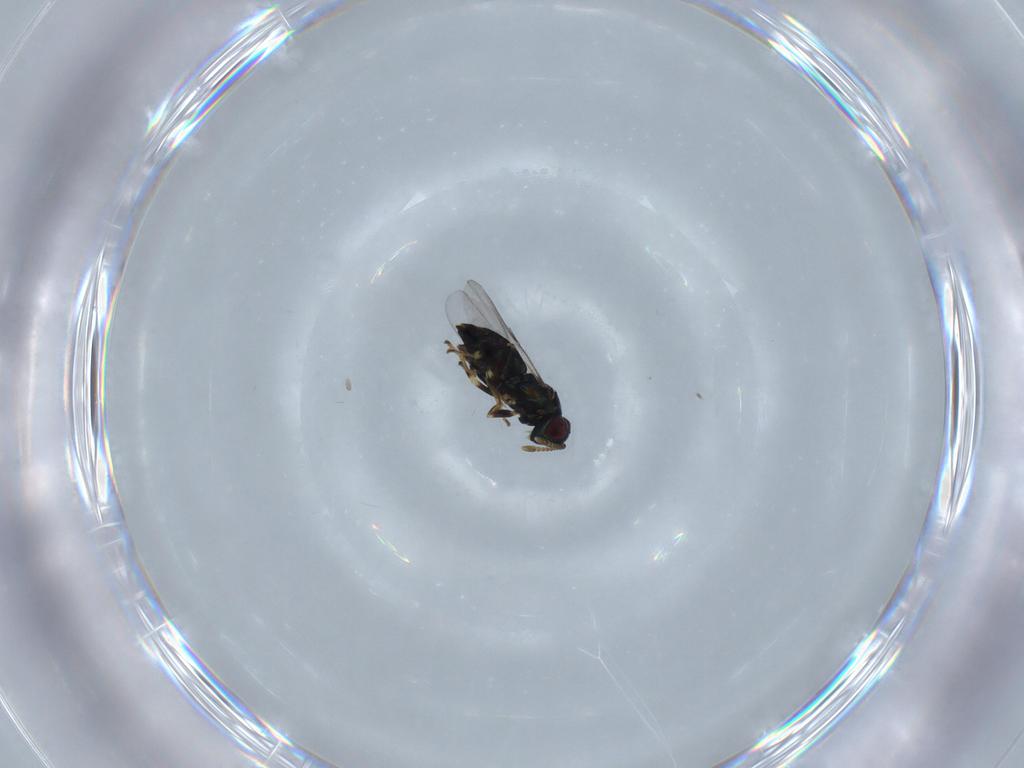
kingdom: Animalia
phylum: Arthropoda
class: Insecta
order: Hymenoptera
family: Encyrtidae
